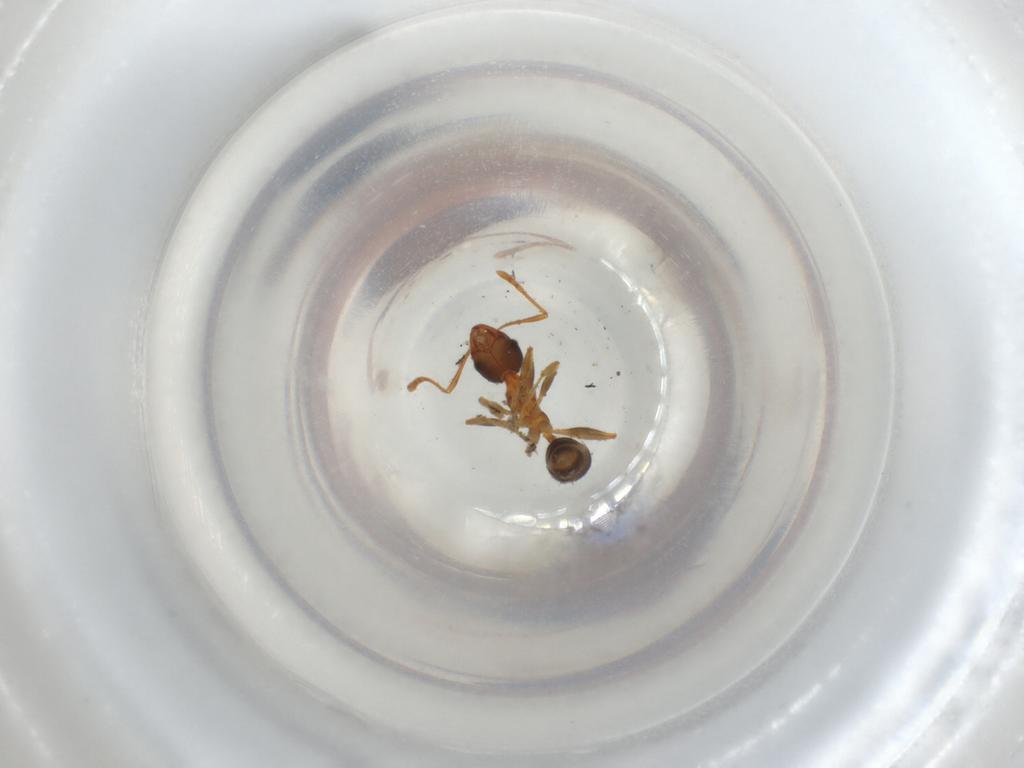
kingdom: Animalia
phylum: Arthropoda
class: Insecta
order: Hymenoptera
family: Formicidae
